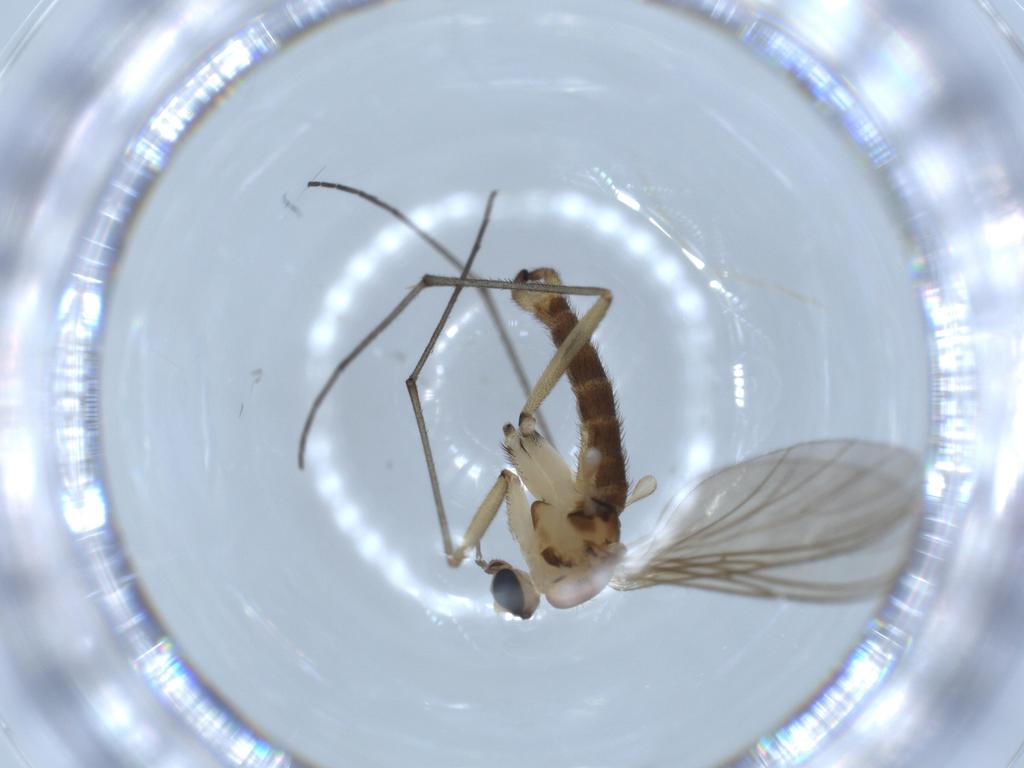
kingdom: Animalia
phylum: Arthropoda
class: Insecta
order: Diptera
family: Sciaridae
